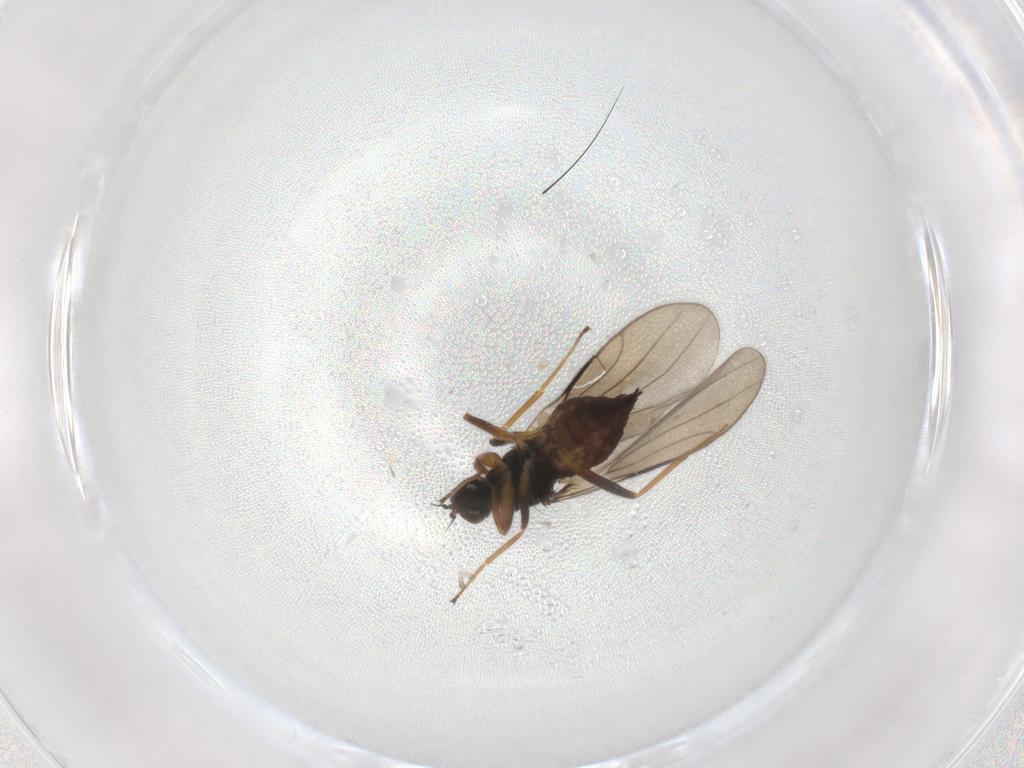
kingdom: Animalia
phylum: Arthropoda
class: Insecta
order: Diptera
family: Hybotidae
